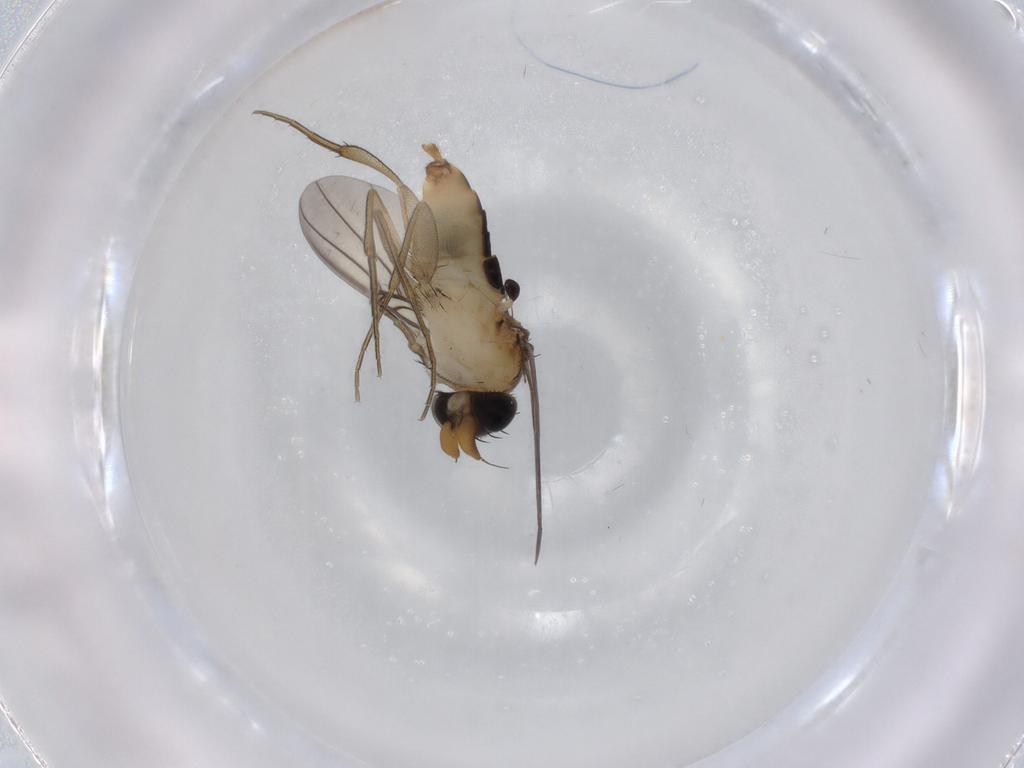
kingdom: Animalia
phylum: Arthropoda
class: Insecta
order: Diptera
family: Phoridae
